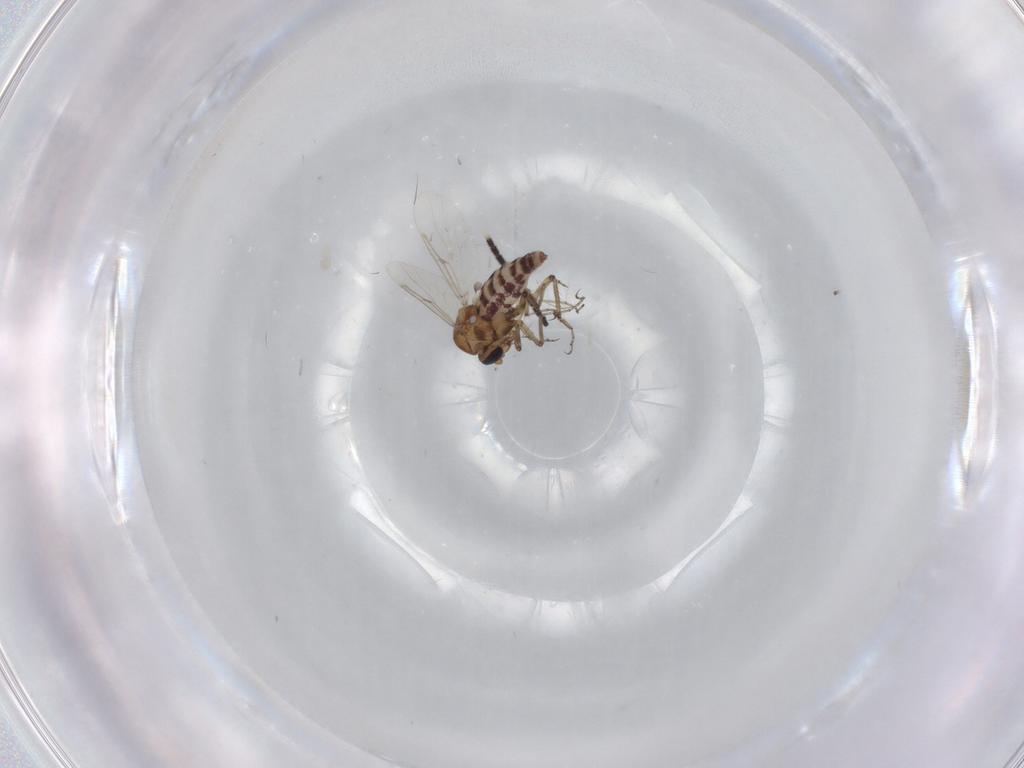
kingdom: Animalia
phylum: Arthropoda
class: Insecta
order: Diptera
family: Ceratopogonidae
